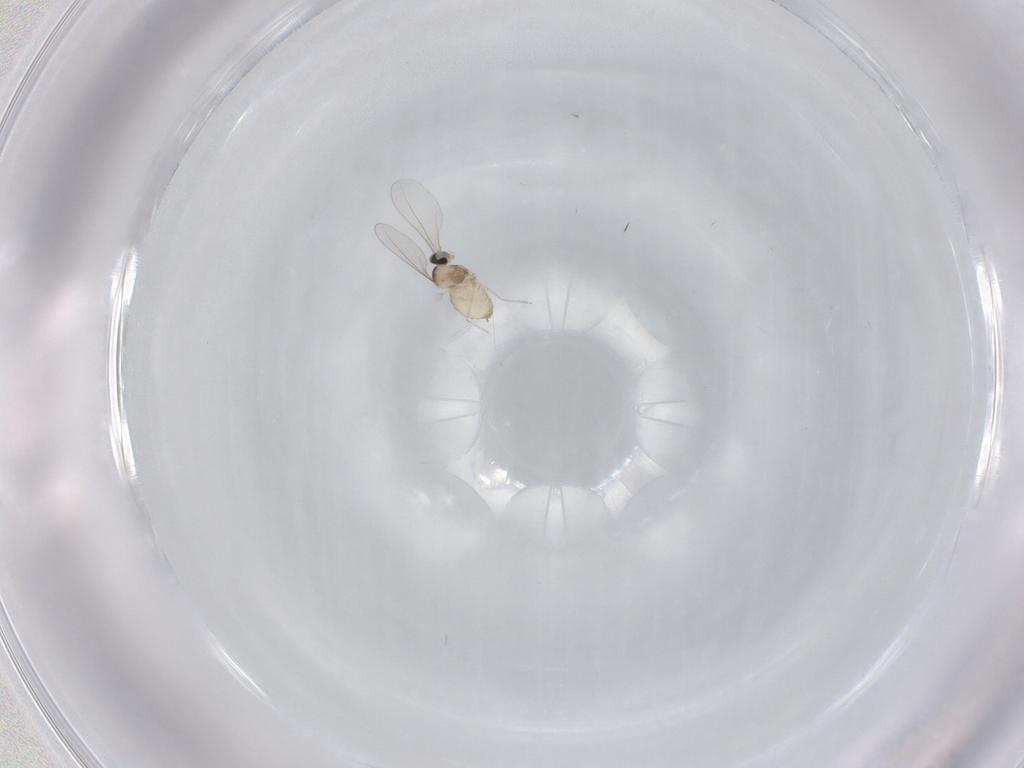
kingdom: Animalia
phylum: Arthropoda
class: Insecta
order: Diptera
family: Cecidomyiidae
